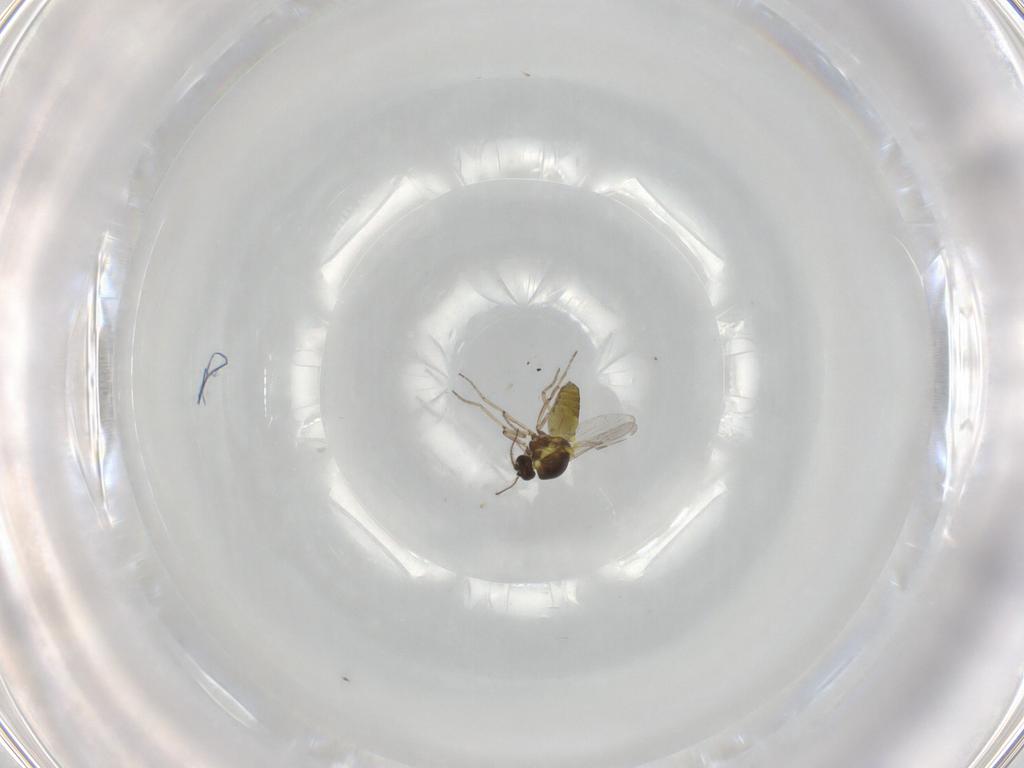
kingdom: Animalia
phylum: Arthropoda
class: Insecta
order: Diptera
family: Ceratopogonidae
